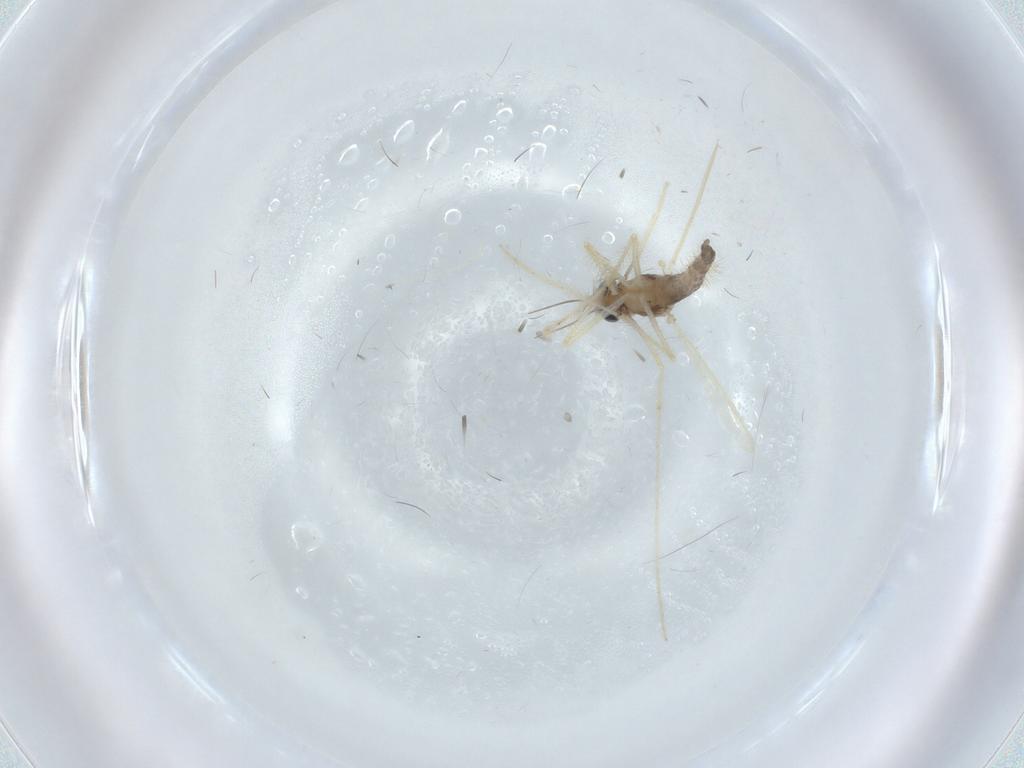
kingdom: Animalia
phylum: Arthropoda
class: Insecta
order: Diptera
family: Chironomidae
